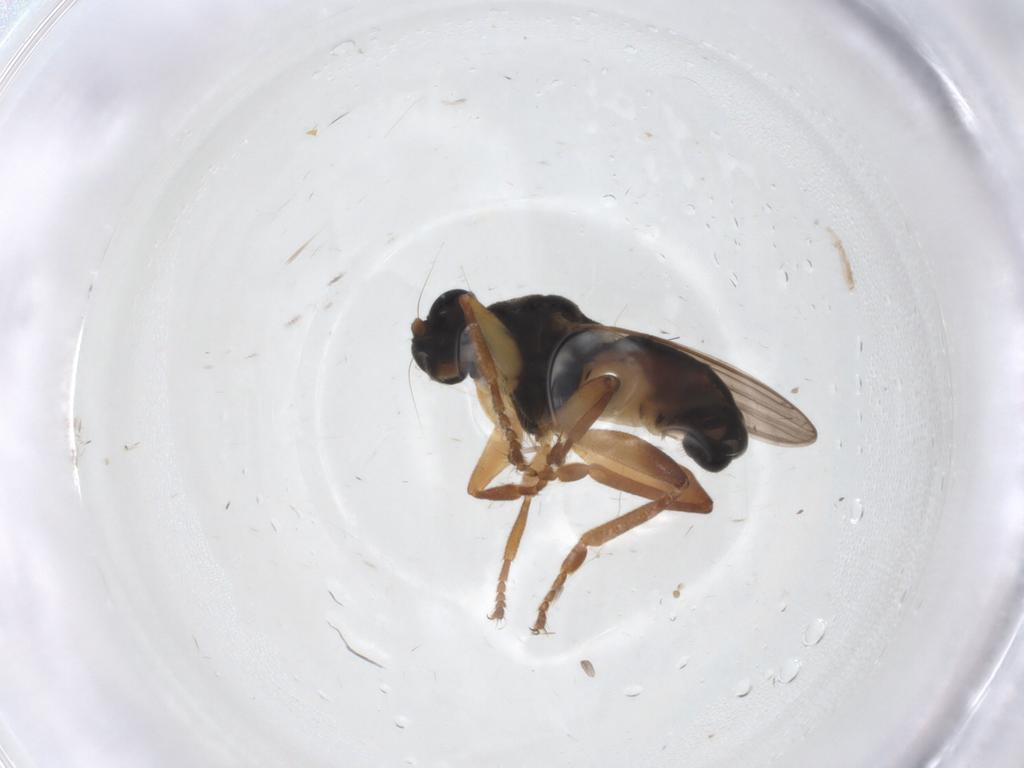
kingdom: Animalia
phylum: Arthropoda
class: Insecta
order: Diptera
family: Sphaeroceridae
